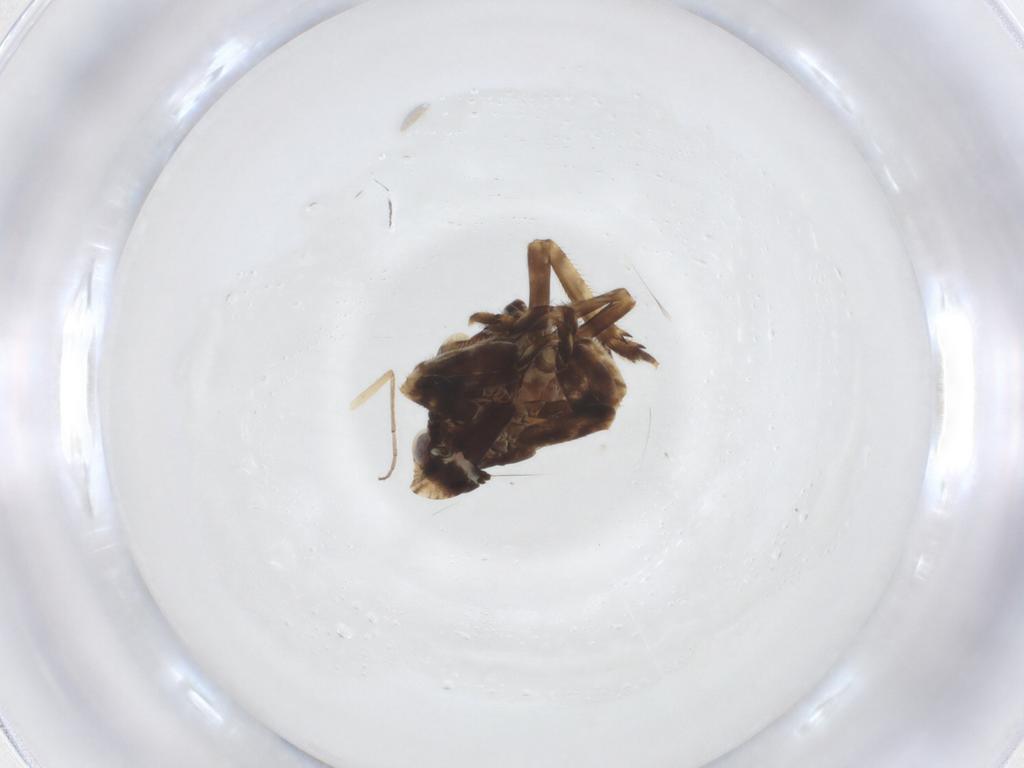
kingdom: Animalia
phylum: Arthropoda
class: Insecta
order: Hemiptera
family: Fulgoroidea_incertae_sedis
